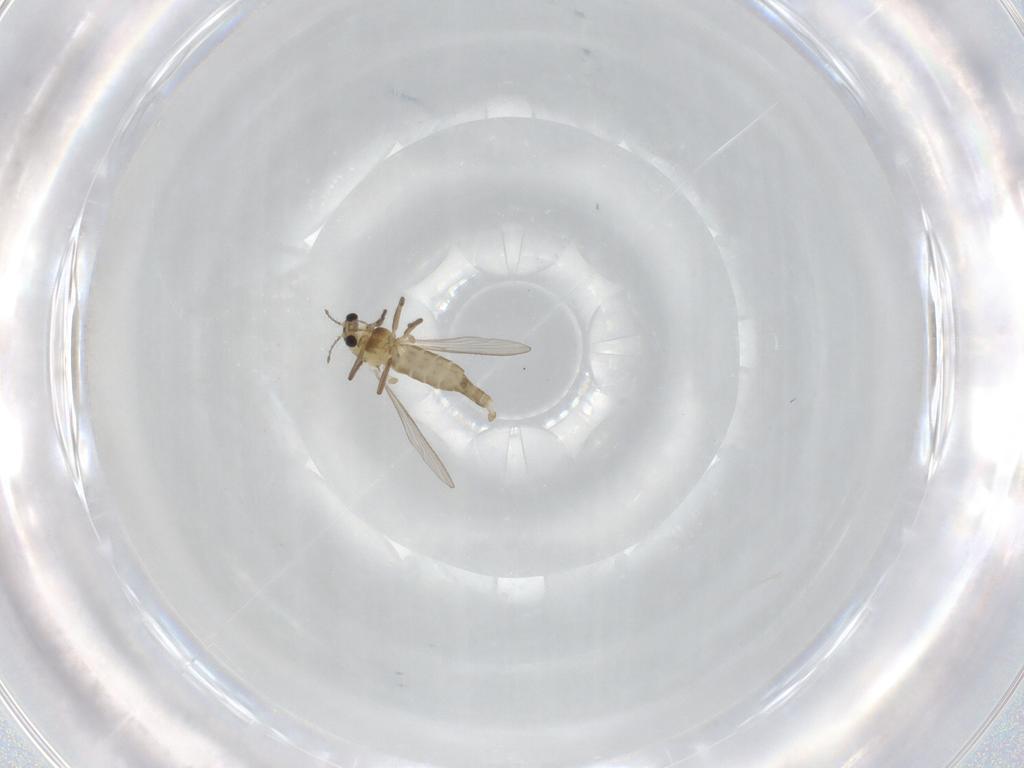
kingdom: Animalia
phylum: Arthropoda
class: Insecta
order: Diptera
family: Chironomidae
